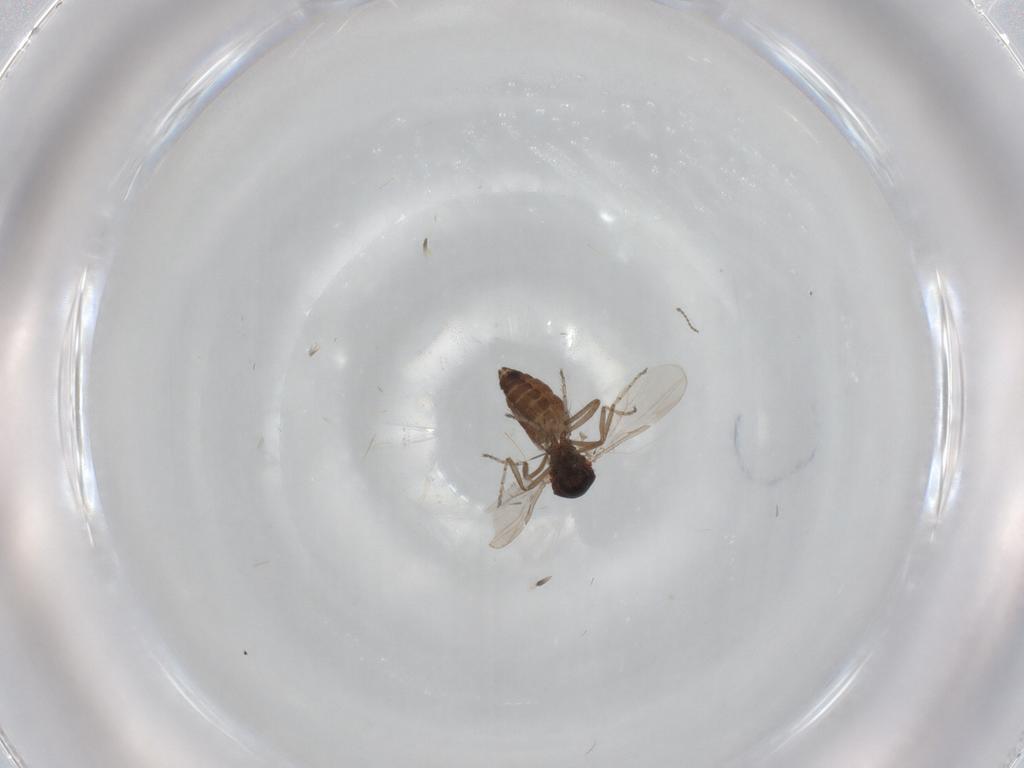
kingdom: Animalia
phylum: Arthropoda
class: Insecta
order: Diptera
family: Ceratopogonidae
